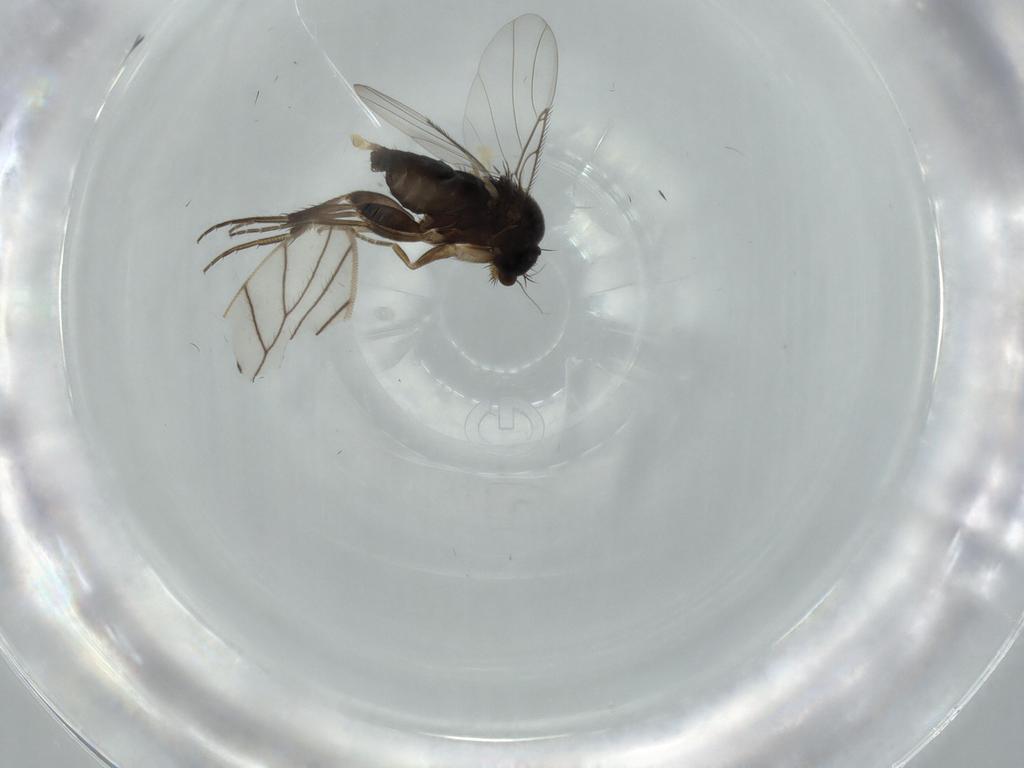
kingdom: Animalia
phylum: Arthropoda
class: Insecta
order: Diptera
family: Phoridae
